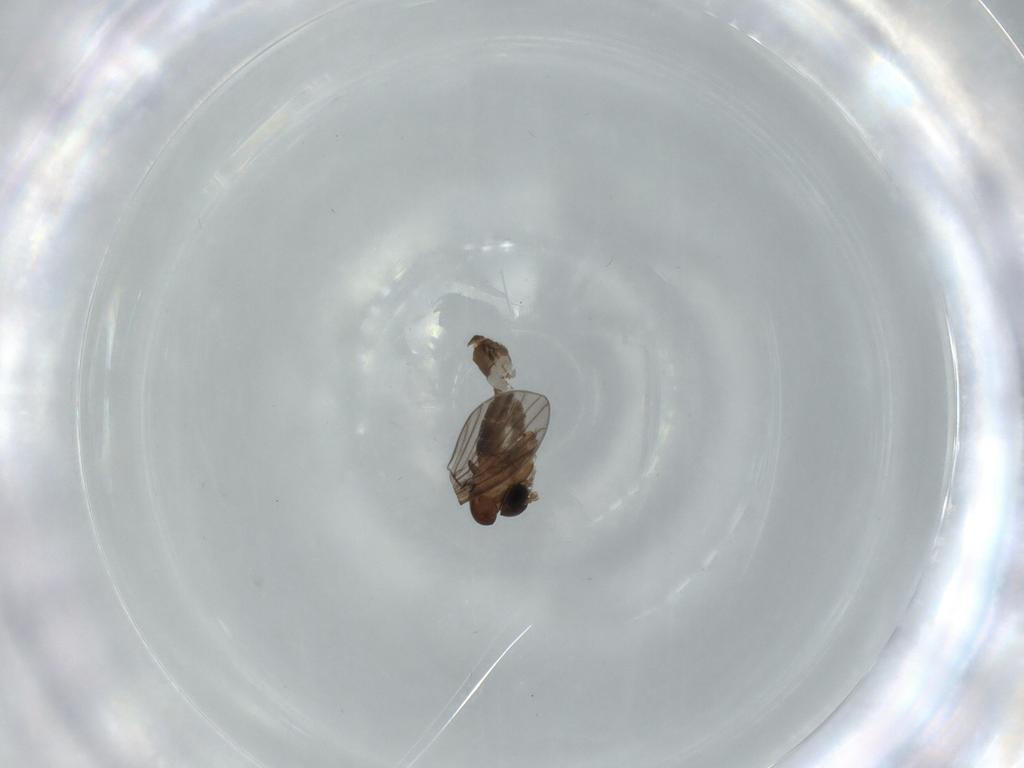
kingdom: Animalia
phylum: Arthropoda
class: Insecta
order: Diptera
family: Psychodidae
